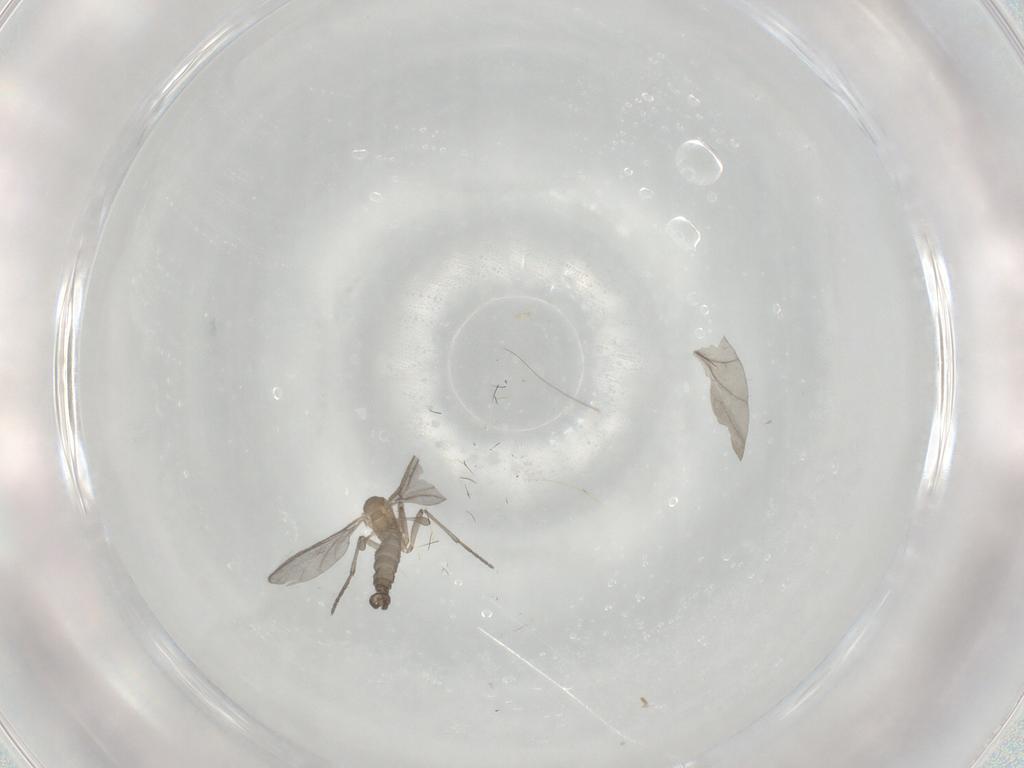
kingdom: Animalia
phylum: Arthropoda
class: Insecta
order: Diptera
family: Sciaridae
